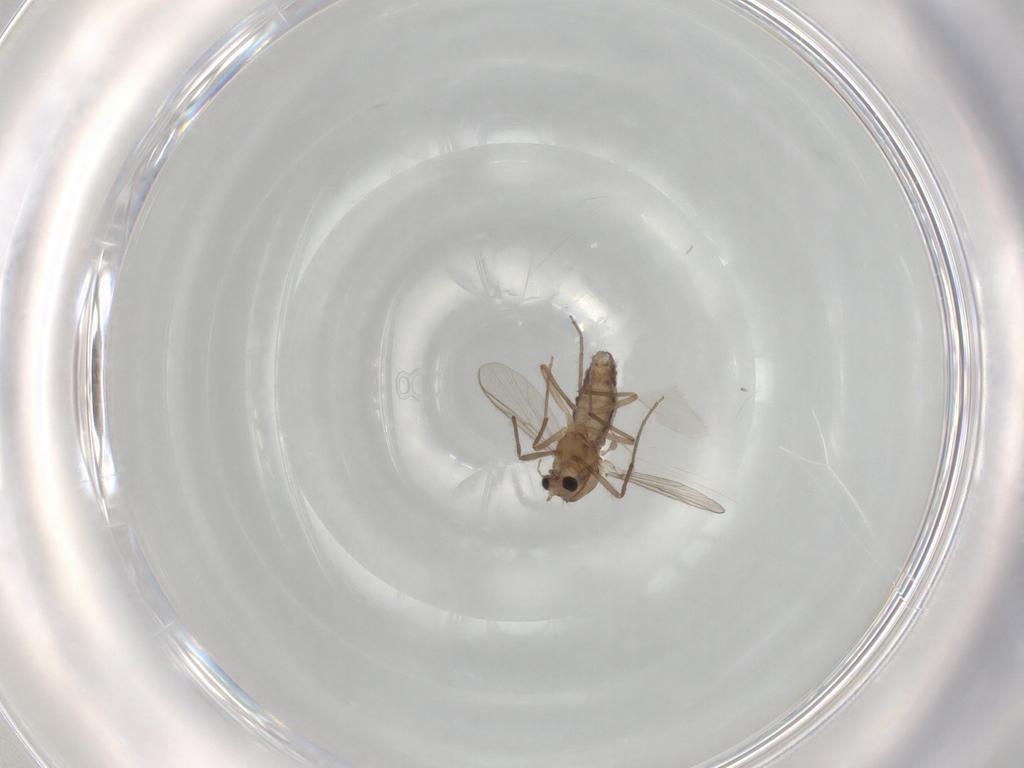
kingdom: Animalia
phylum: Arthropoda
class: Insecta
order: Diptera
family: Chironomidae
